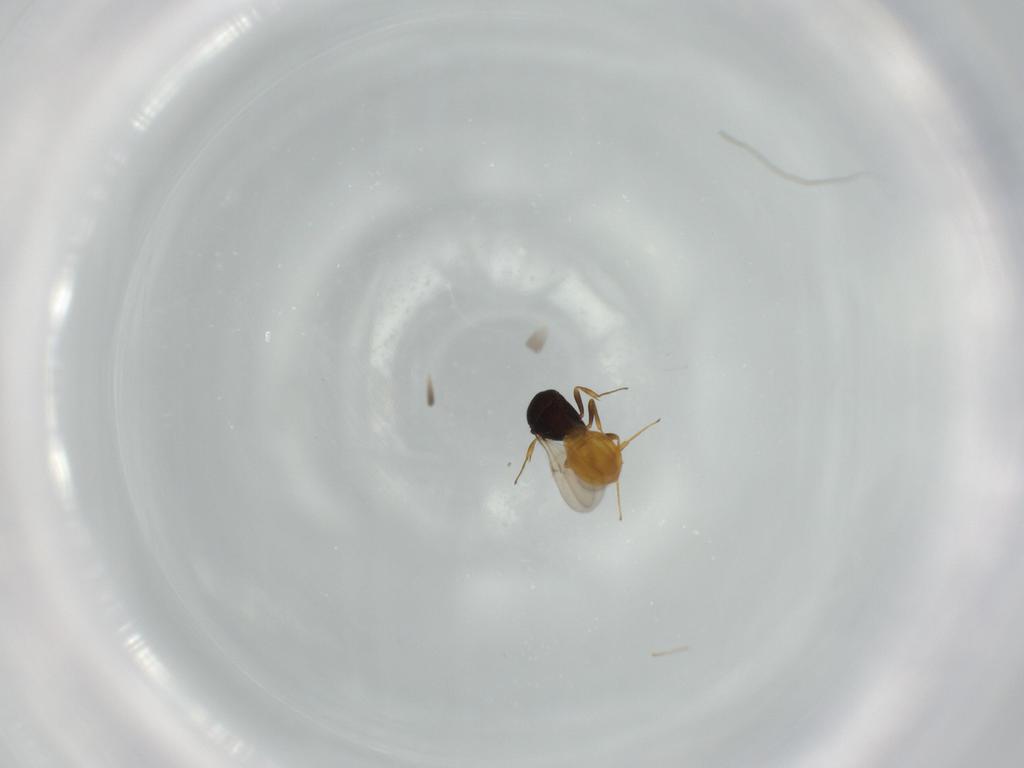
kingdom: Animalia
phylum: Arthropoda
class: Insecta
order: Hymenoptera
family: Scelionidae
